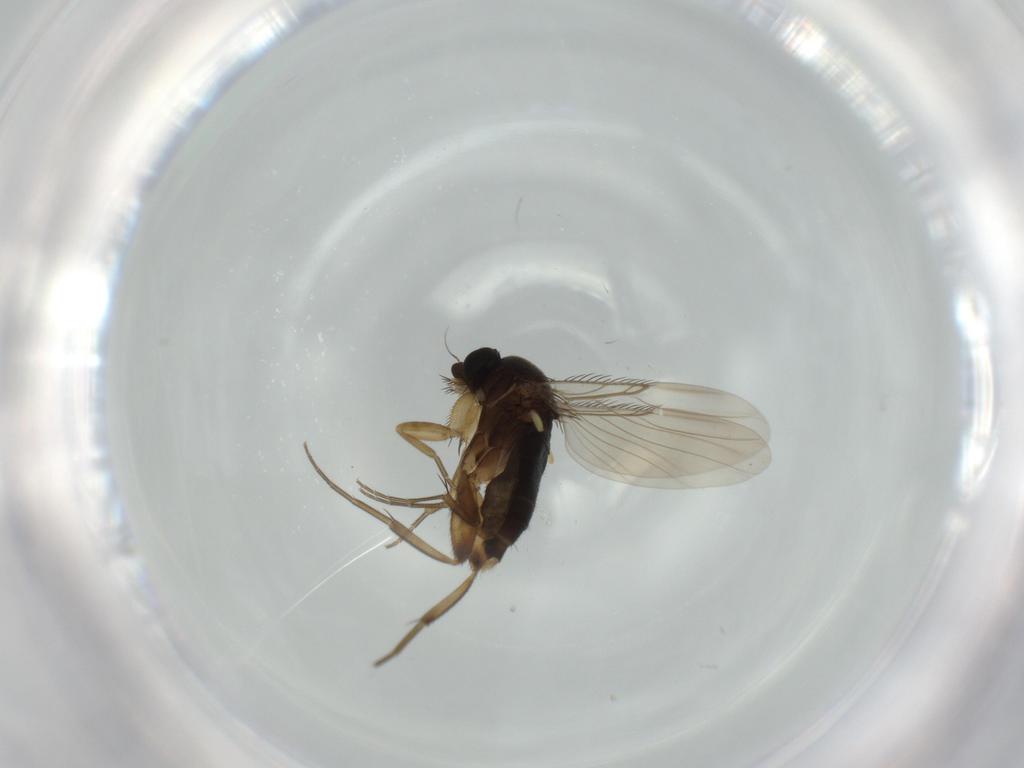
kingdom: Animalia
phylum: Arthropoda
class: Insecta
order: Diptera
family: Phoridae
